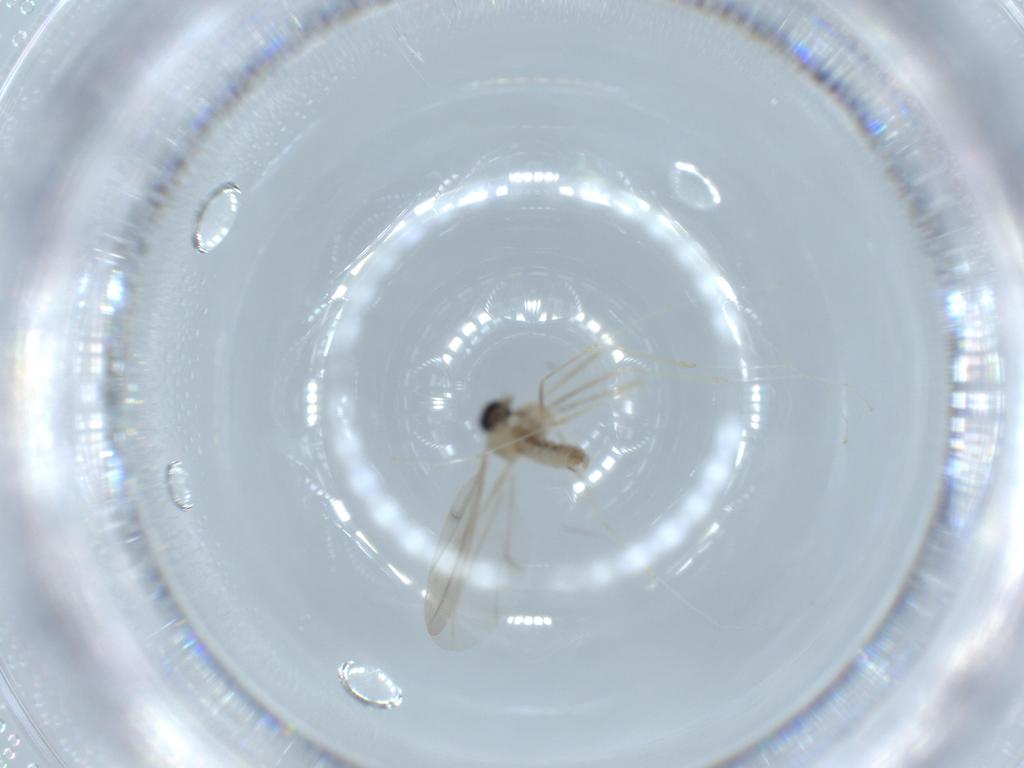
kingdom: Animalia
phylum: Arthropoda
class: Insecta
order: Diptera
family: Cecidomyiidae
